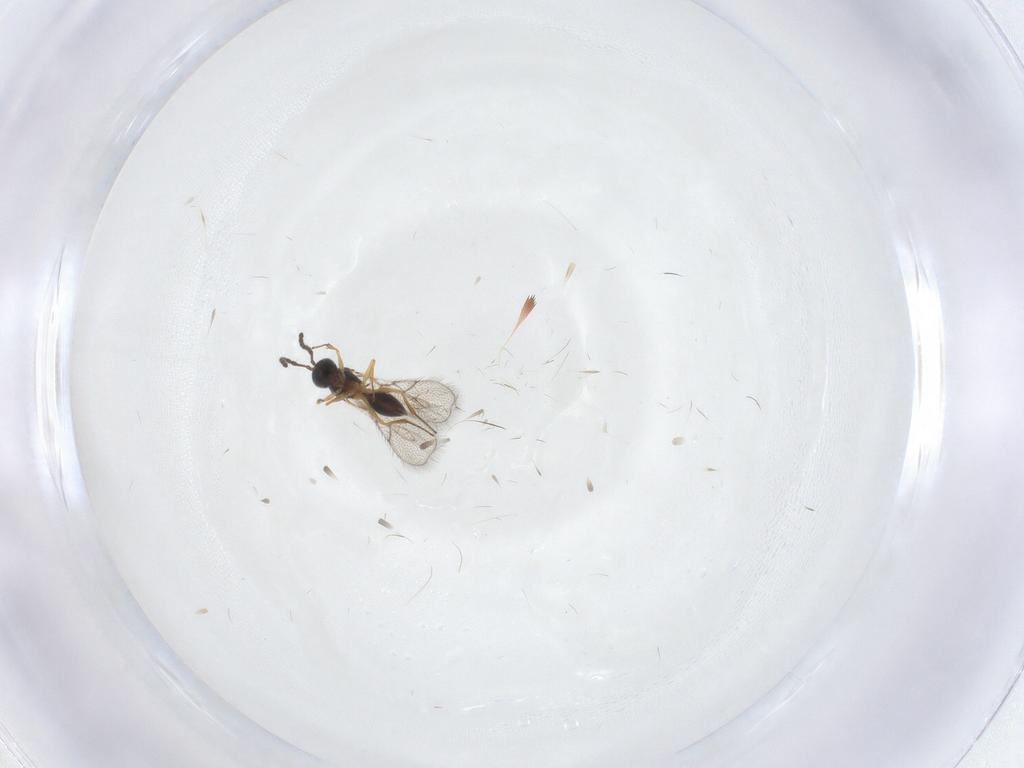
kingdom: Animalia
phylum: Arthropoda
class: Insecta
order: Hymenoptera
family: Figitidae
